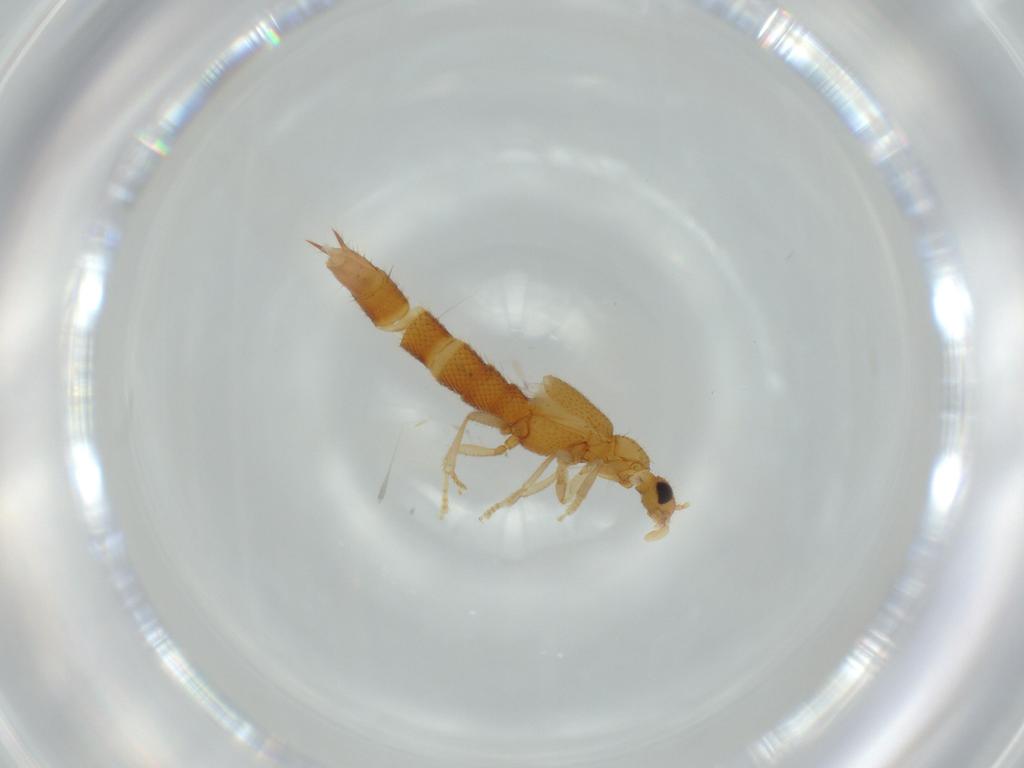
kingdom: Animalia
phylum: Arthropoda
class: Insecta
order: Coleoptera
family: Staphylinidae
